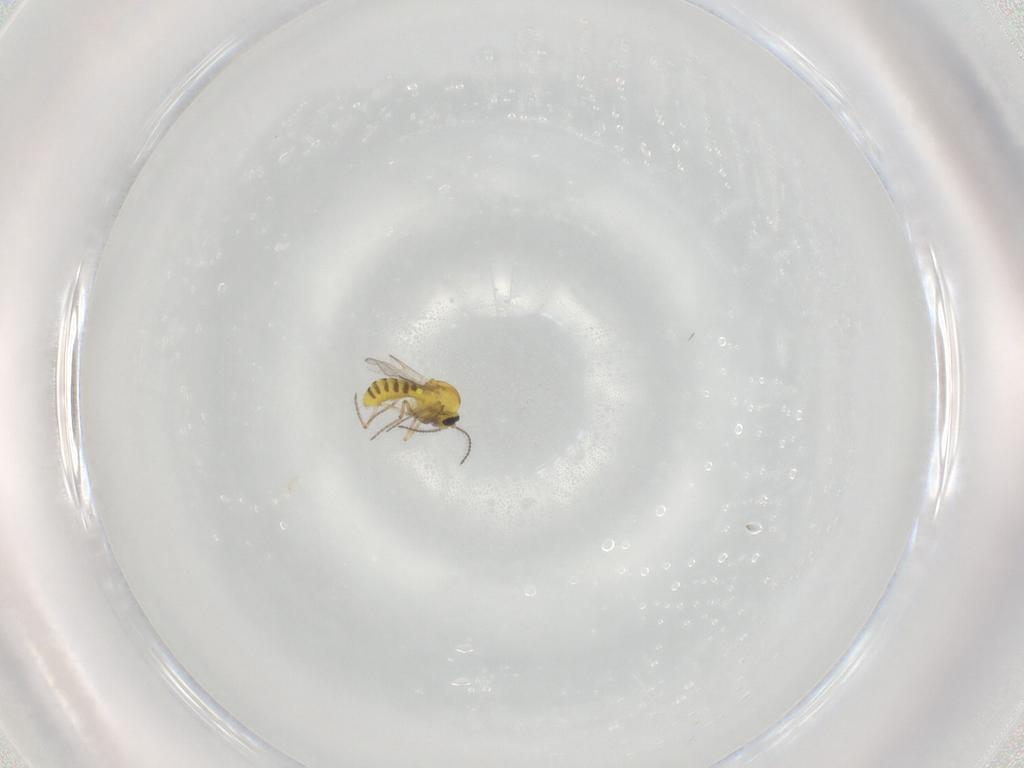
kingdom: Animalia
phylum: Arthropoda
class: Insecta
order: Diptera
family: Ceratopogonidae
